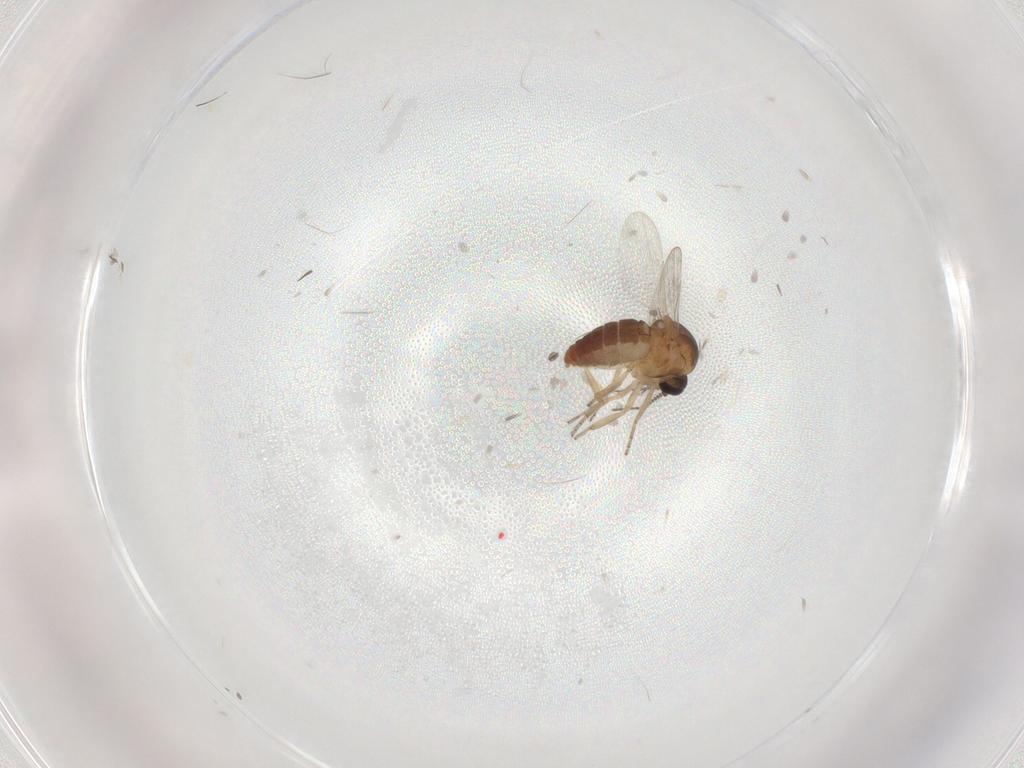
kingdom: Animalia
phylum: Arthropoda
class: Insecta
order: Diptera
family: Ceratopogonidae
